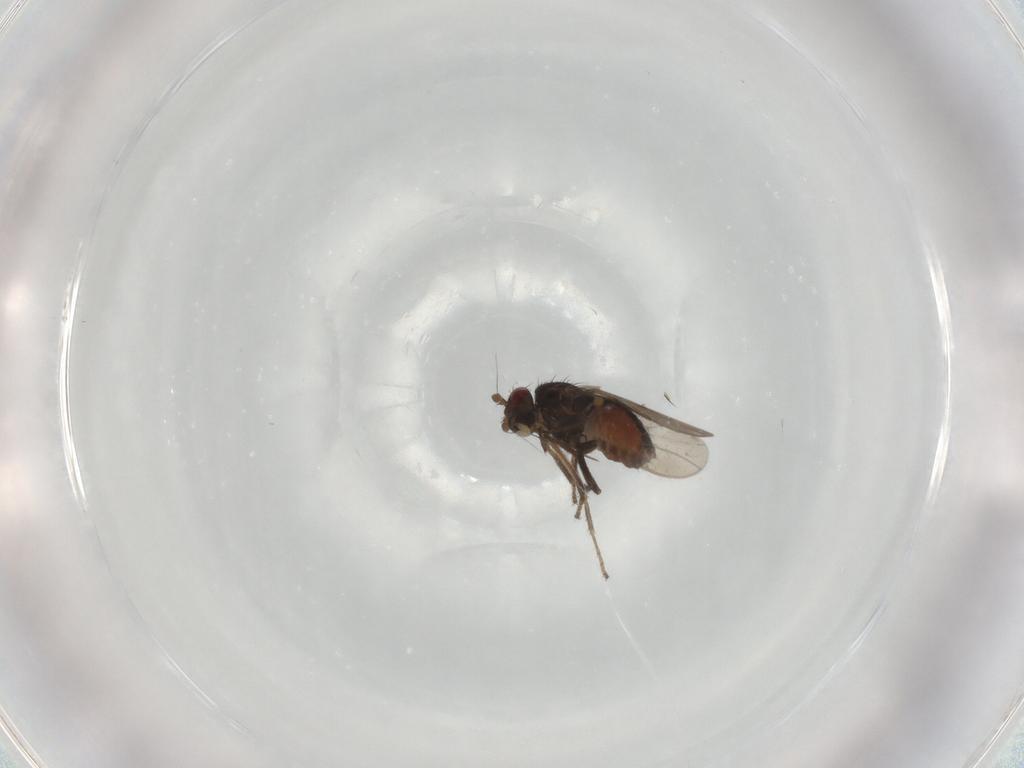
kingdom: Animalia
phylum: Arthropoda
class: Insecta
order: Diptera
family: Sphaeroceridae
